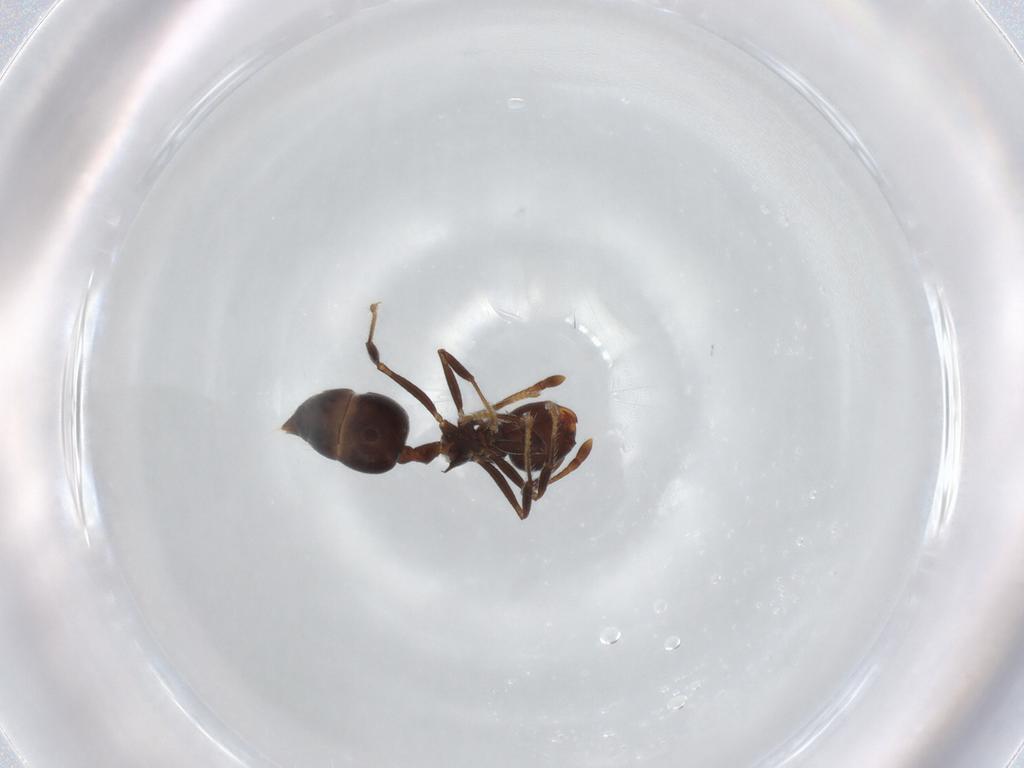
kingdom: Animalia
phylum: Arthropoda
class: Insecta
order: Hymenoptera
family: Formicidae
